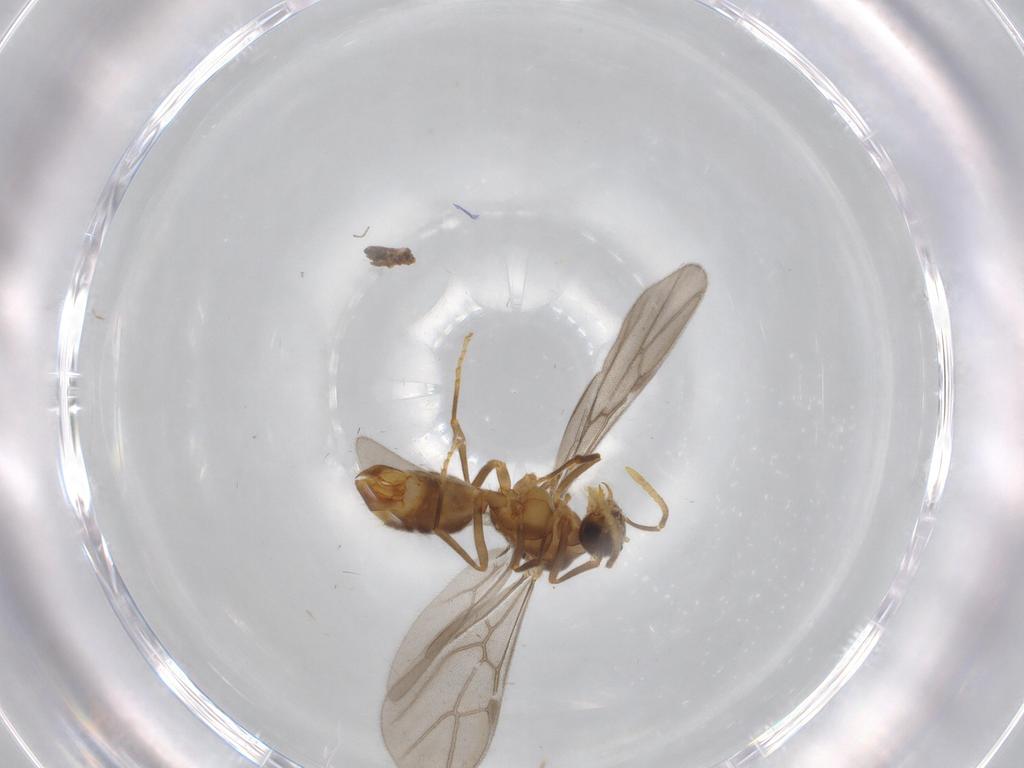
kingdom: Animalia
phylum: Arthropoda
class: Insecta
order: Hymenoptera
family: Formicidae
